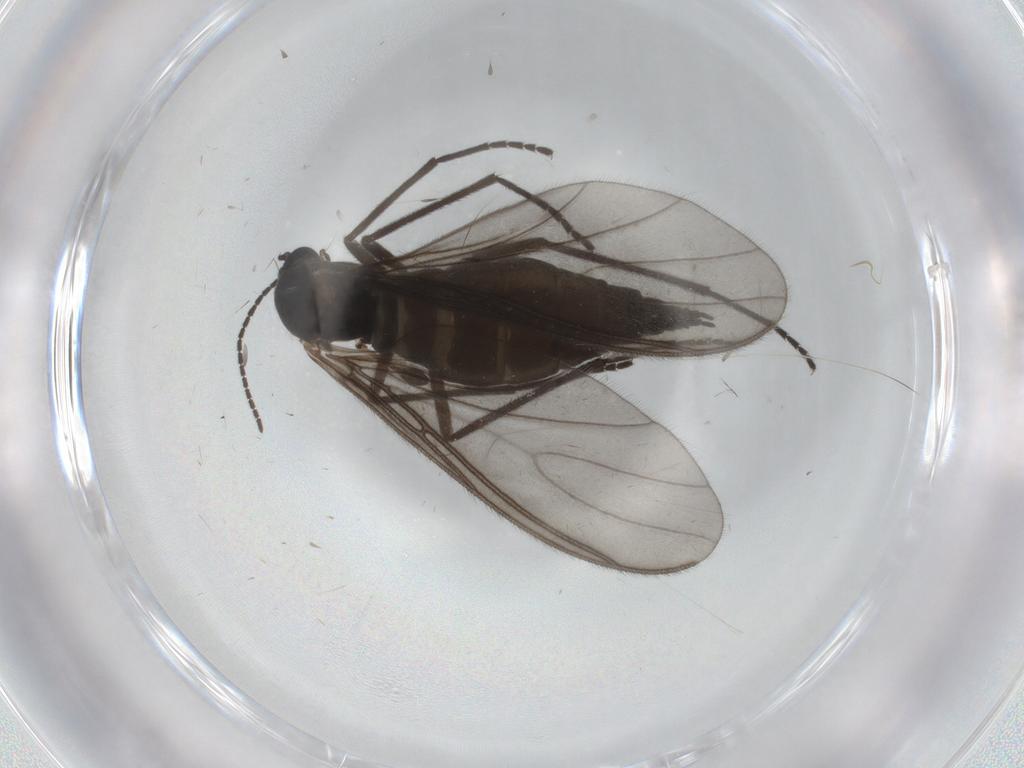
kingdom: Animalia
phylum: Arthropoda
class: Insecta
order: Diptera
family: Sciaridae
